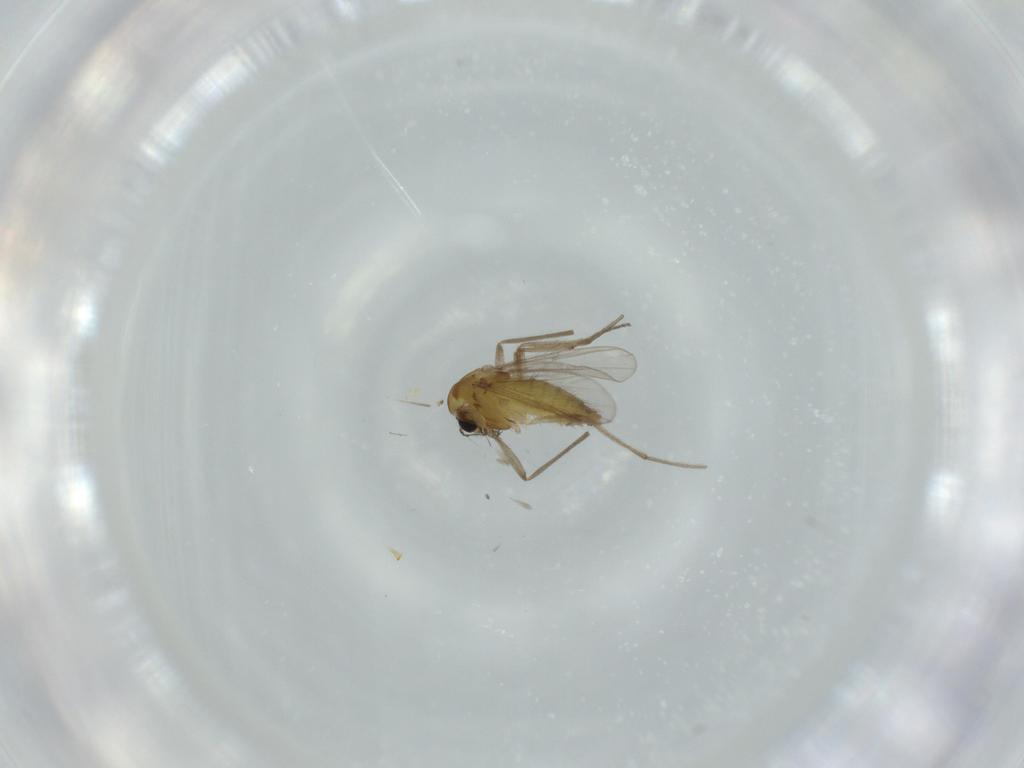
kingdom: Animalia
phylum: Arthropoda
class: Insecta
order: Diptera
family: Chironomidae
